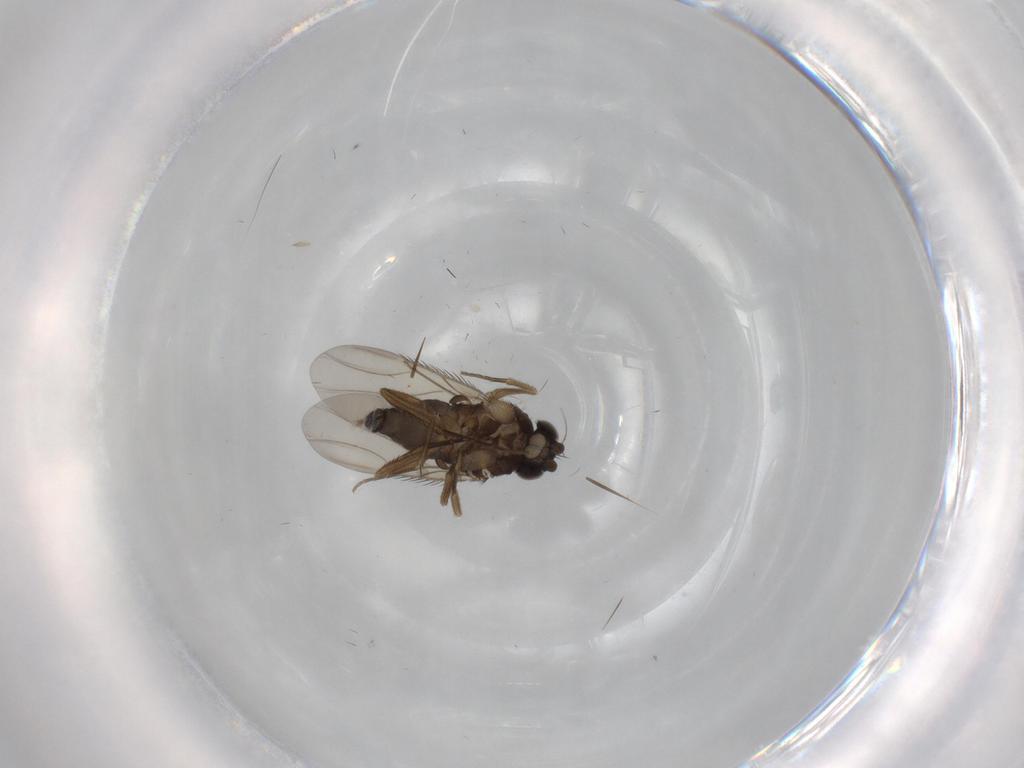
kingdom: Animalia
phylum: Arthropoda
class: Insecta
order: Diptera
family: Phoridae
